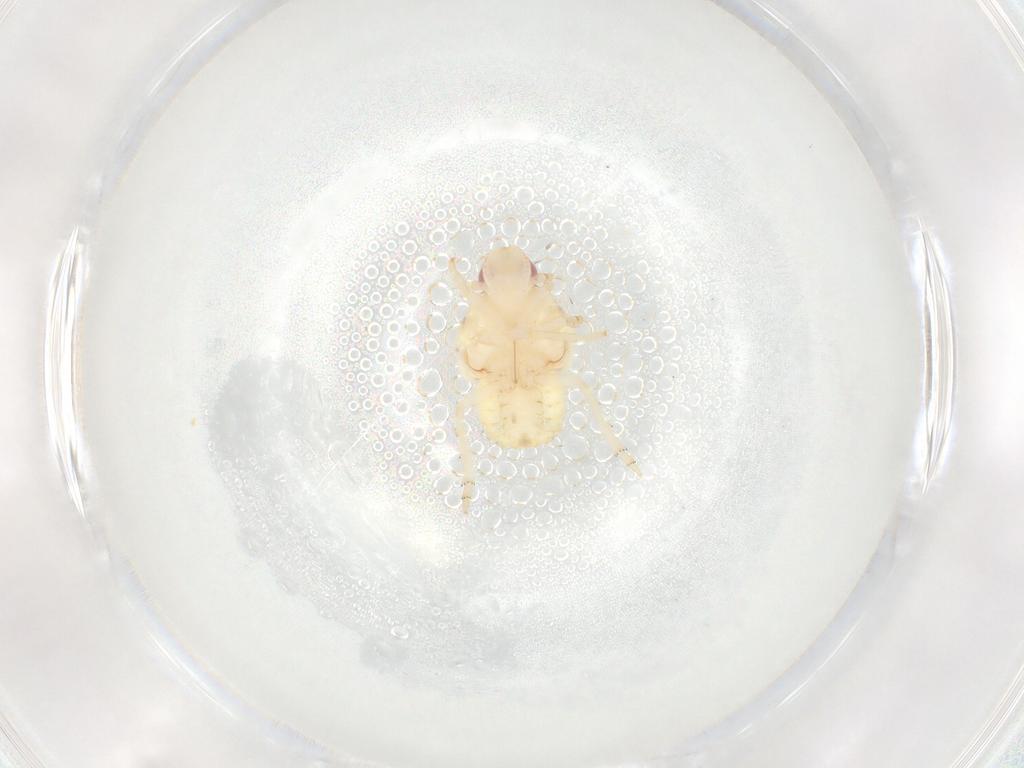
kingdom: Animalia
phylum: Arthropoda
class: Insecta
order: Hemiptera
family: Flatidae
